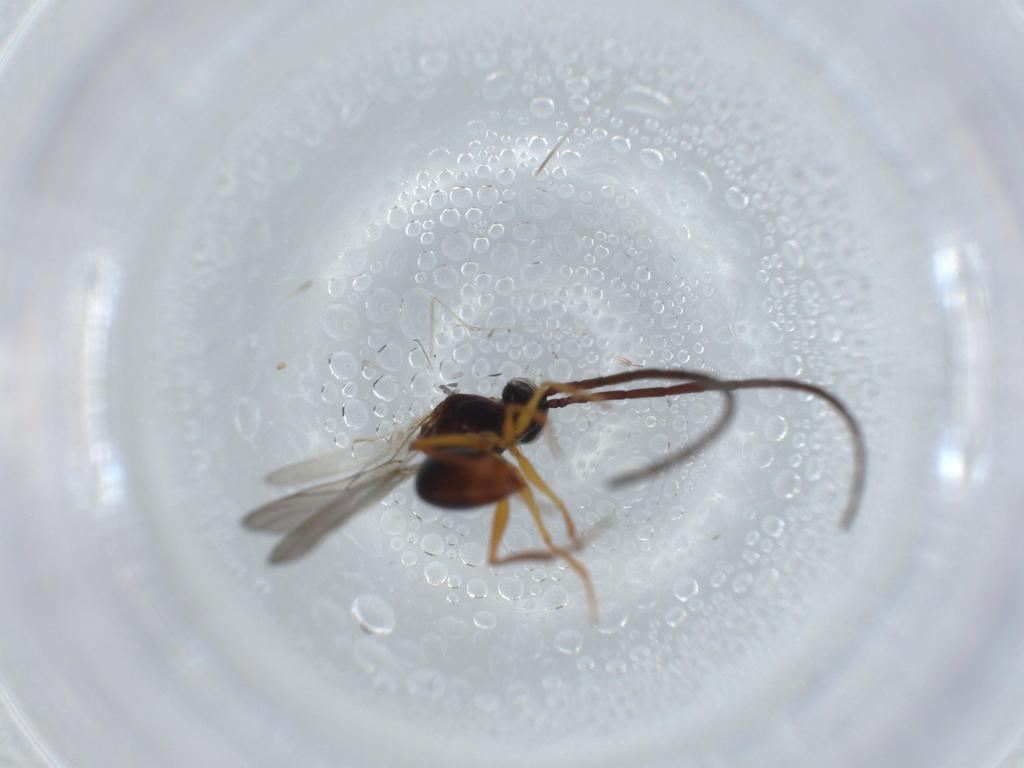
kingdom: Animalia
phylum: Arthropoda
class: Insecta
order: Hymenoptera
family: Figitidae
